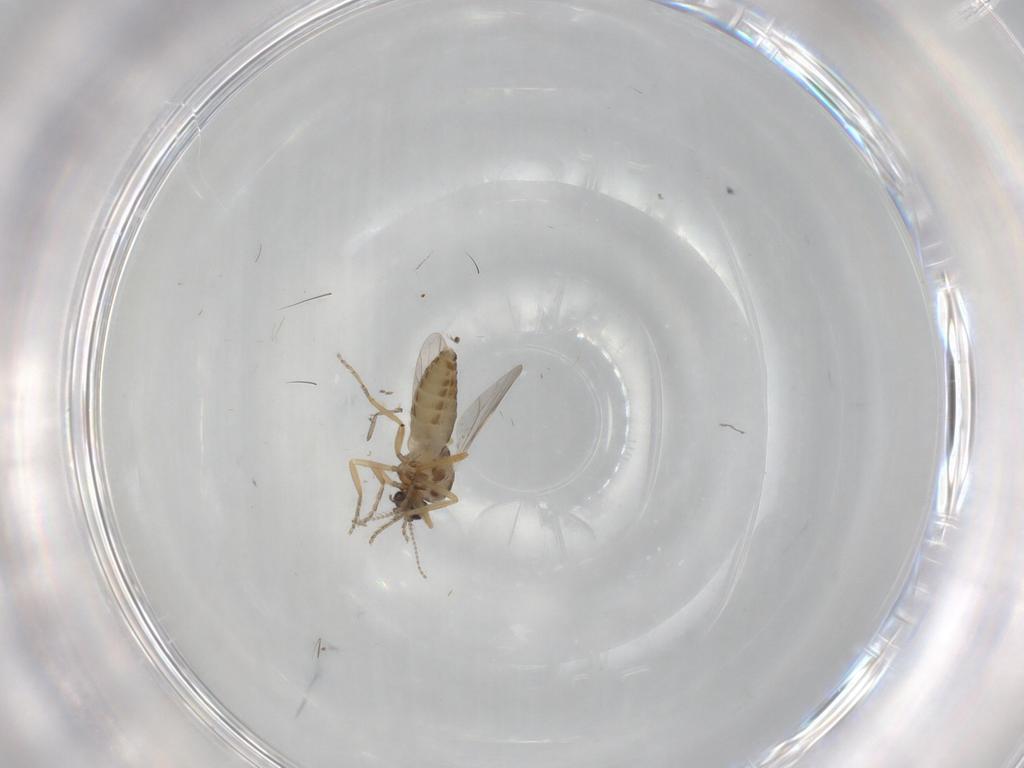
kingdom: Animalia
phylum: Arthropoda
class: Insecta
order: Diptera
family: Ceratopogonidae
